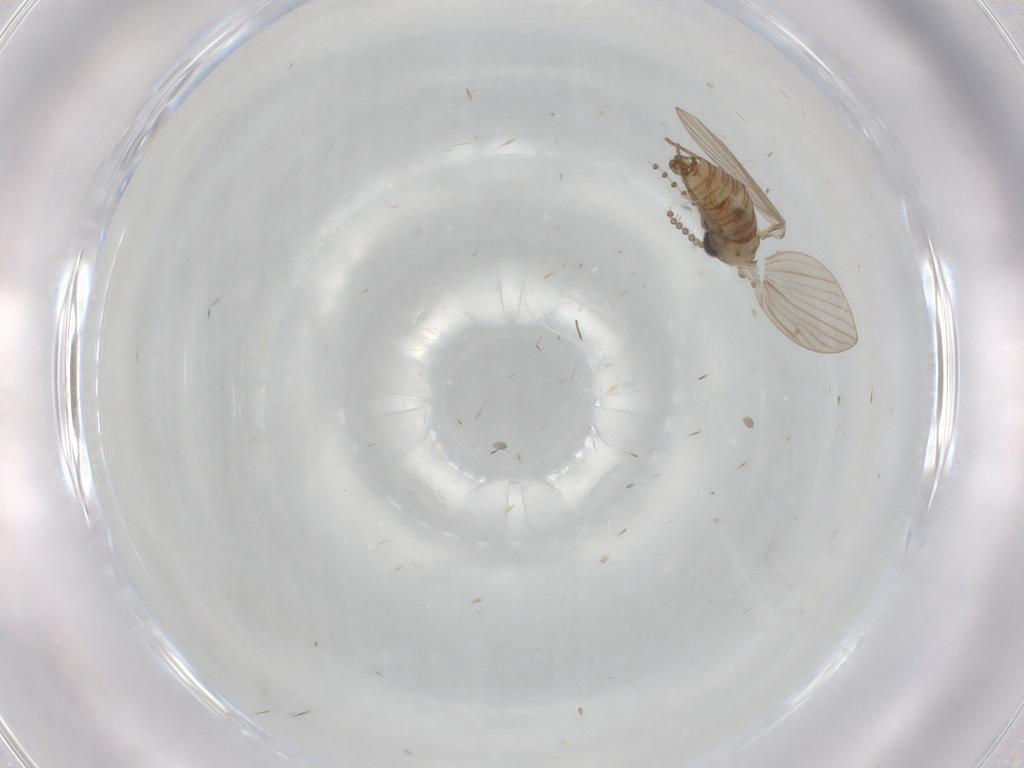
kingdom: Animalia
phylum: Arthropoda
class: Insecta
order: Diptera
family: Psychodidae
